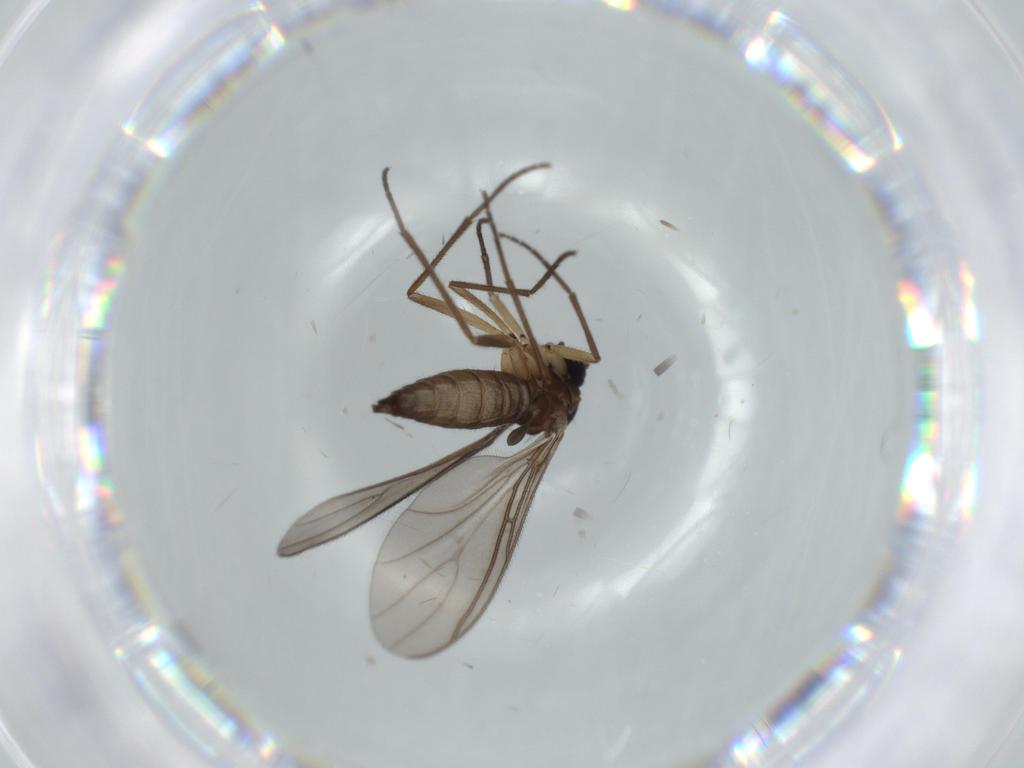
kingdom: Animalia
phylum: Arthropoda
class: Insecta
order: Diptera
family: Sciaridae
